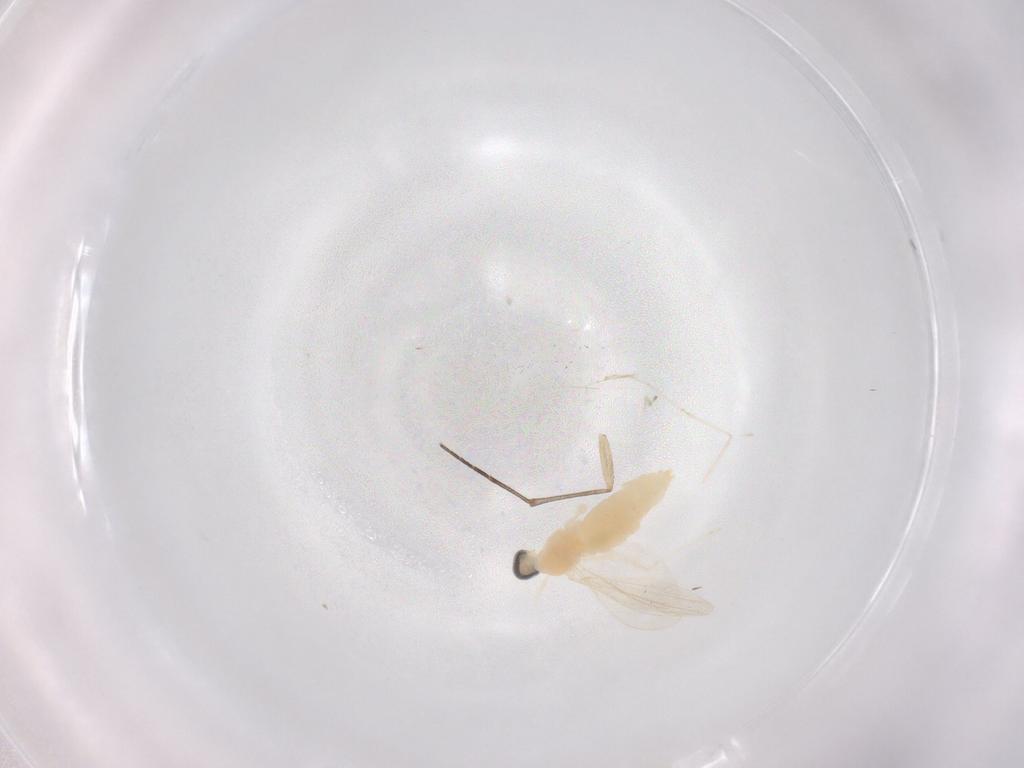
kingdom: Animalia
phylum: Arthropoda
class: Insecta
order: Diptera
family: Cecidomyiidae
